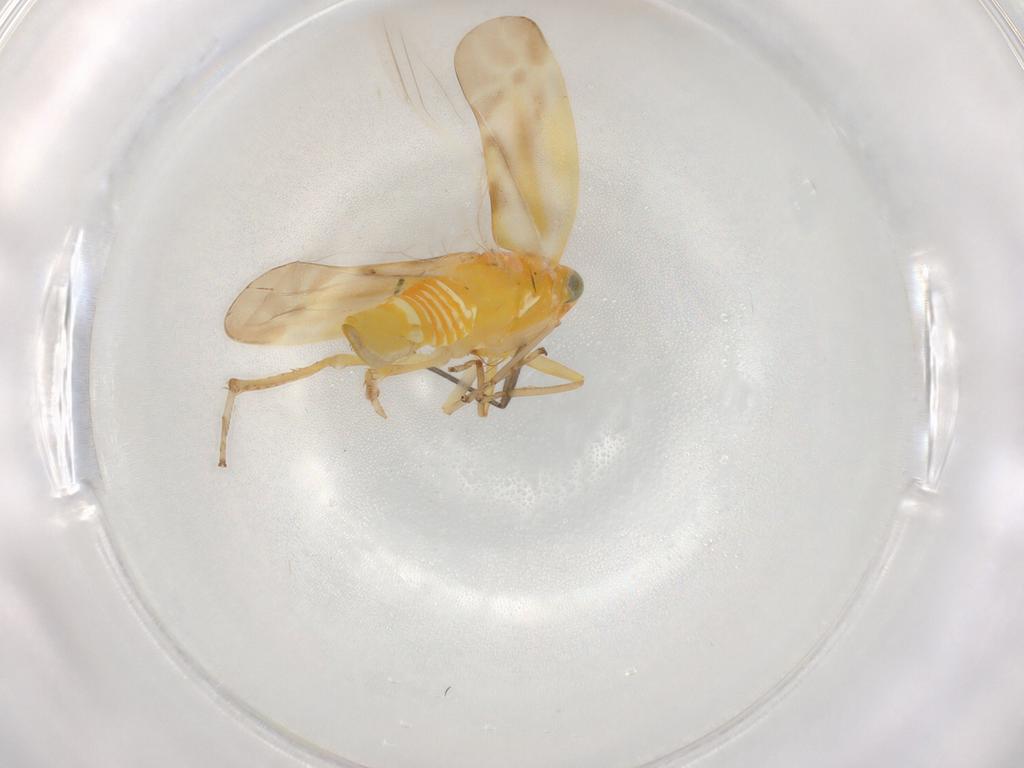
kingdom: Animalia
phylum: Arthropoda
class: Insecta
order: Hemiptera
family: Cicadellidae
